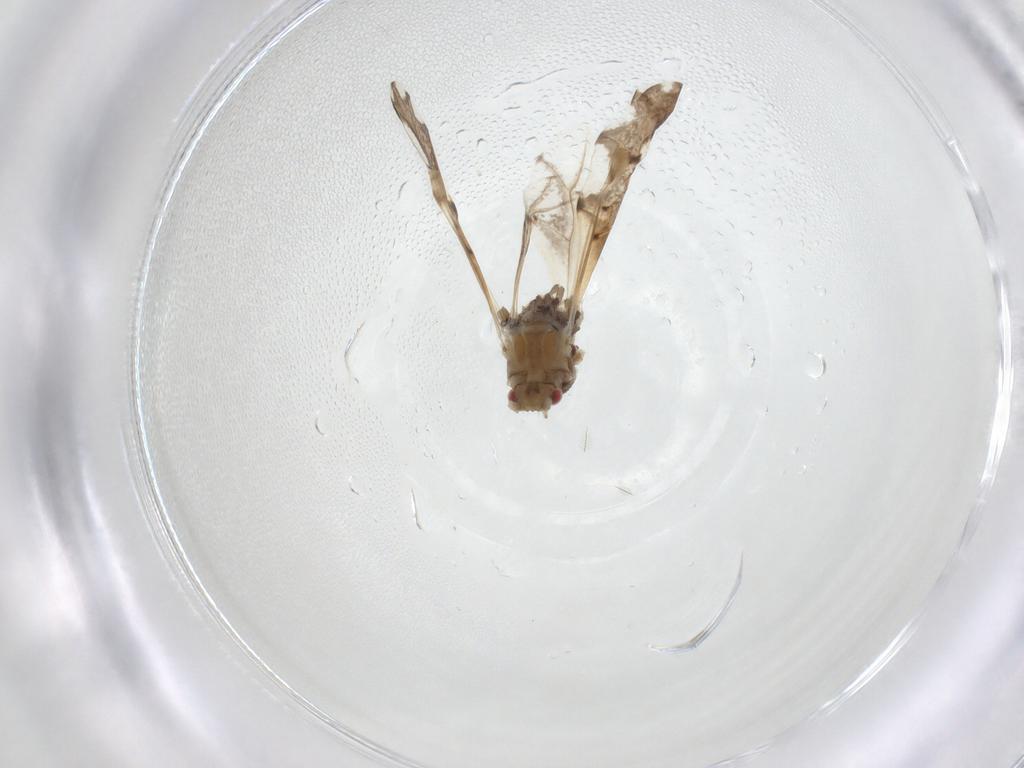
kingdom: Animalia
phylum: Arthropoda
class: Insecta
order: Hemiptera
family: Aphididae
